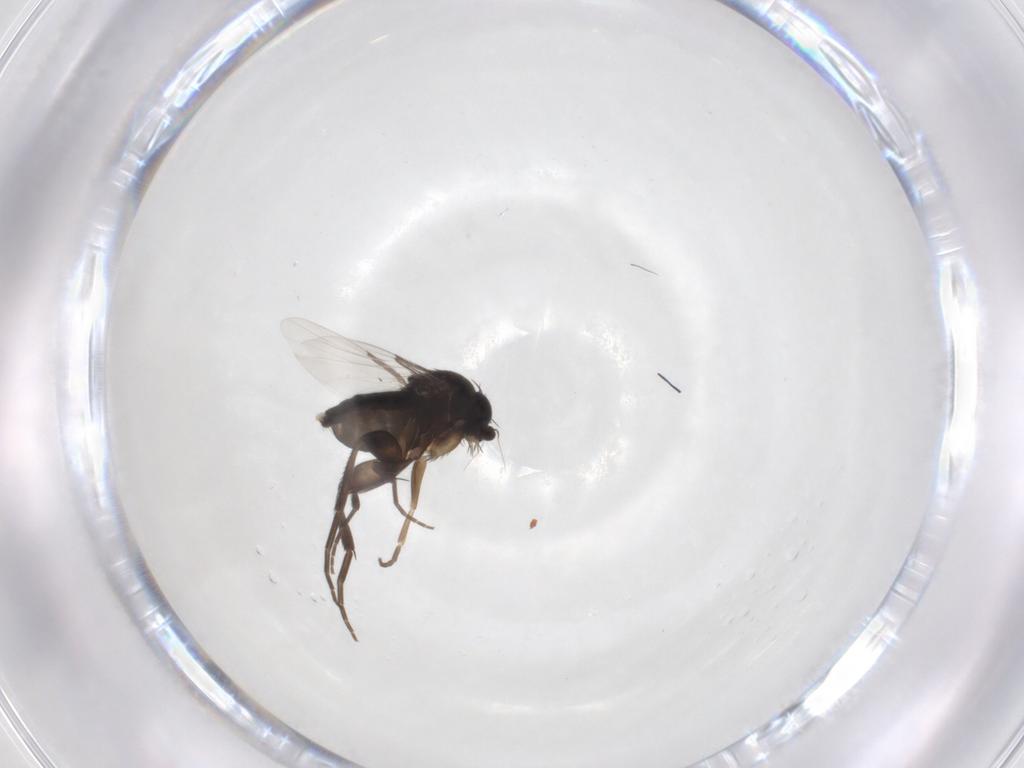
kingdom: Animalia
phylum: Arthropoda
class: Insecta
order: Diptera
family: Phoridae
